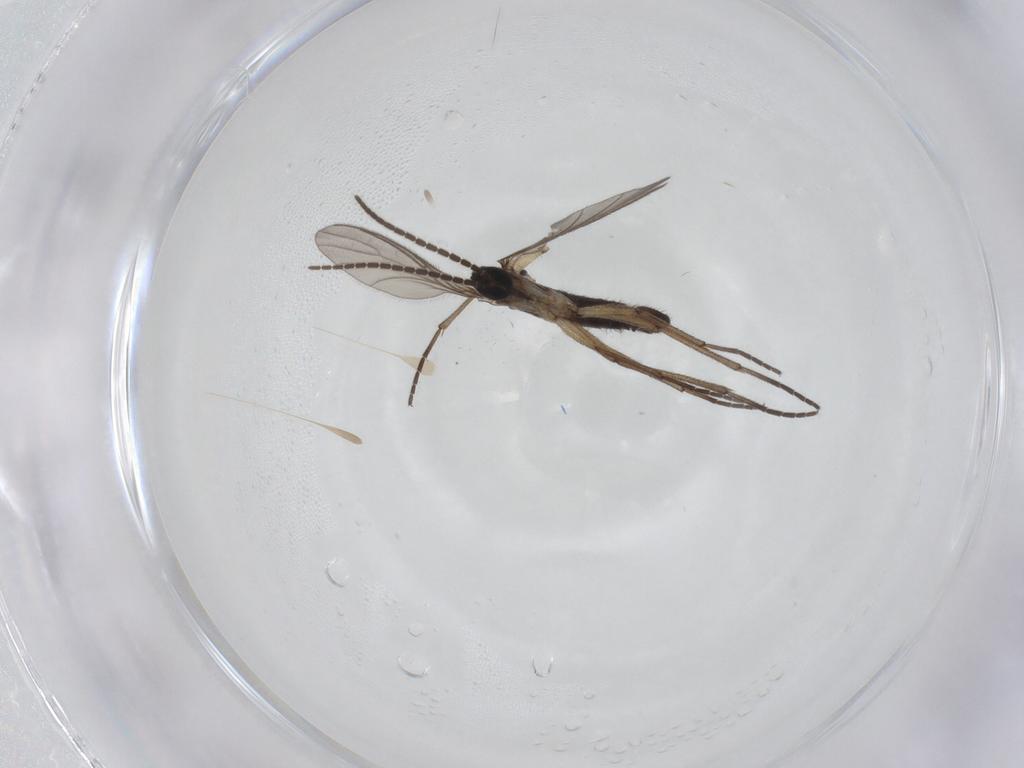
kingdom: Animalia
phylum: Arthropoda
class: Insecta
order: Diptera
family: Sciaridae
